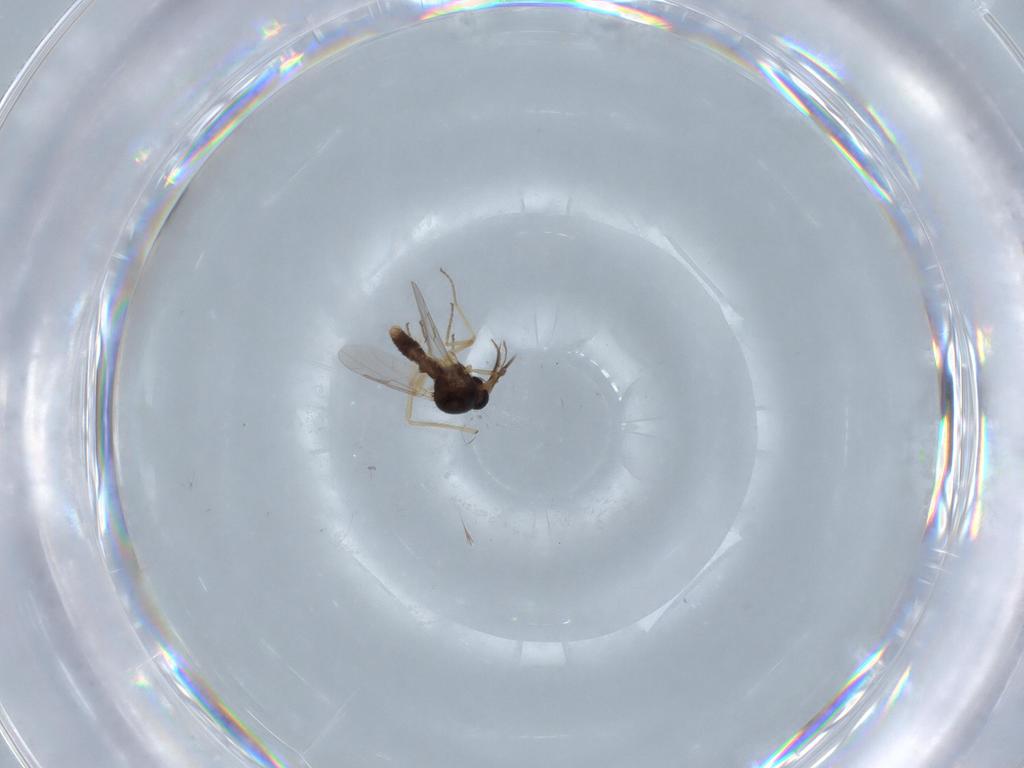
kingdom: Animalia
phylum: Arthropoda
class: Insecta
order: Diptera
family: Ceratopogonidae
